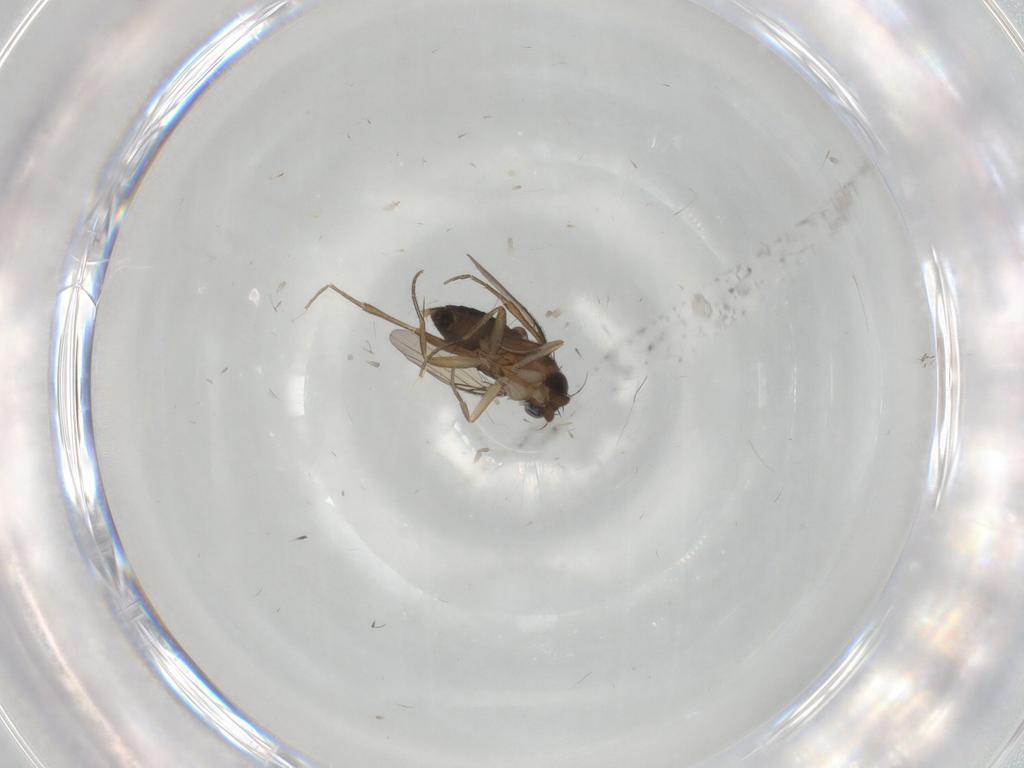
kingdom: Animalia
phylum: Arthropoda
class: Insecta
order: Diptera
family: Phoridae
